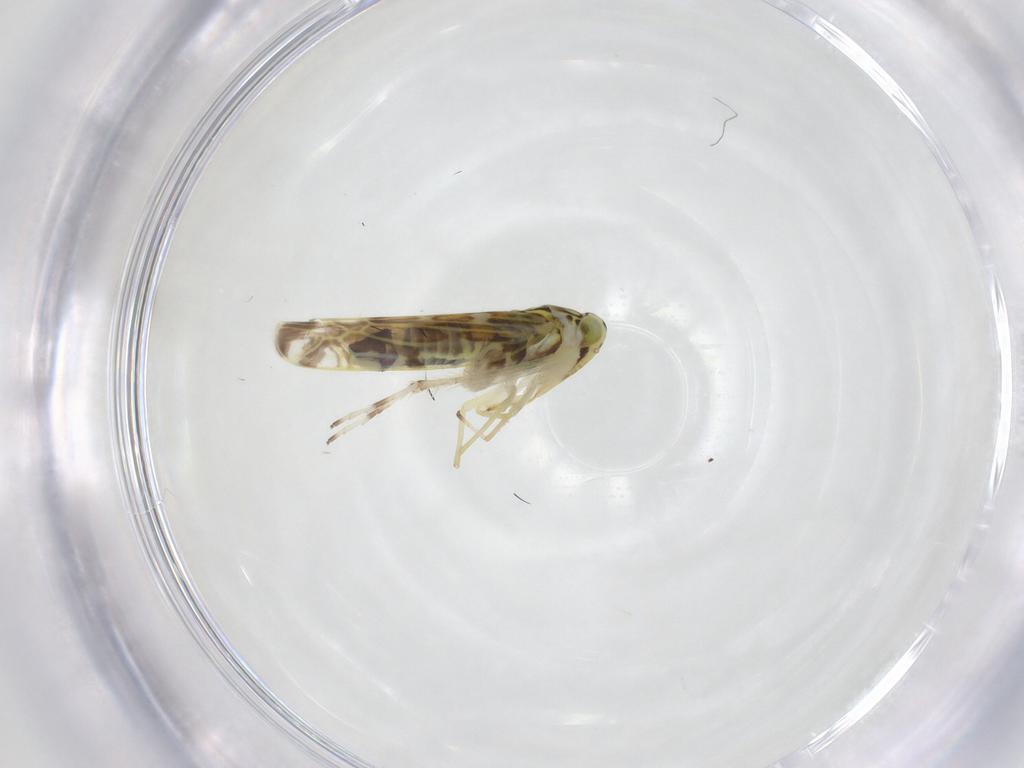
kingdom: Animalia
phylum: Arthropoda
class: Insecta
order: Hemiptera
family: Cicadellidae
